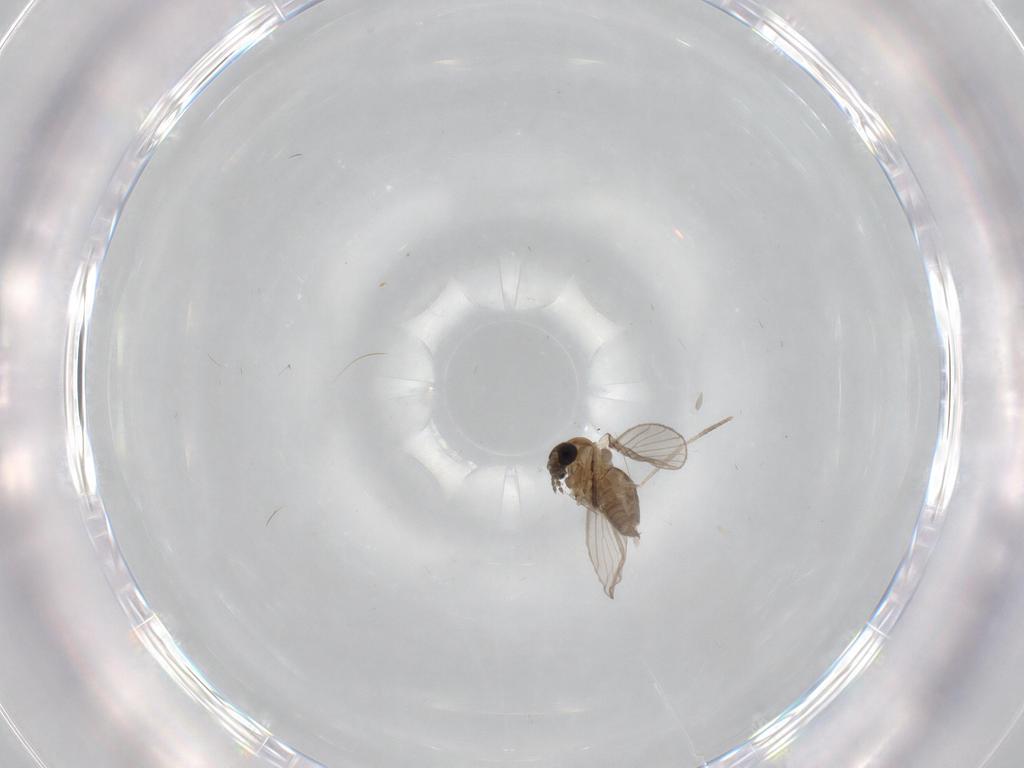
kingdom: Animalia
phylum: Arthropoda
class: Insecta
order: Diptera
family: Psychodidae
